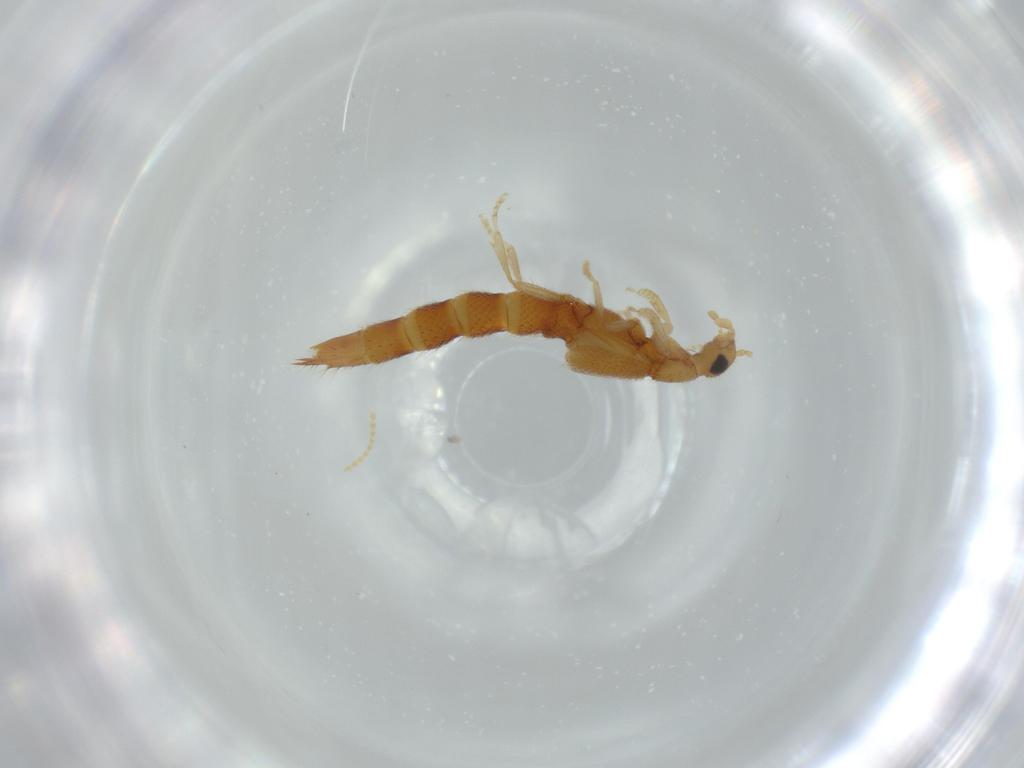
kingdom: Animalia
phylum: Arthropoda
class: Insecta
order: Coleoptera
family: Staphylinidae
